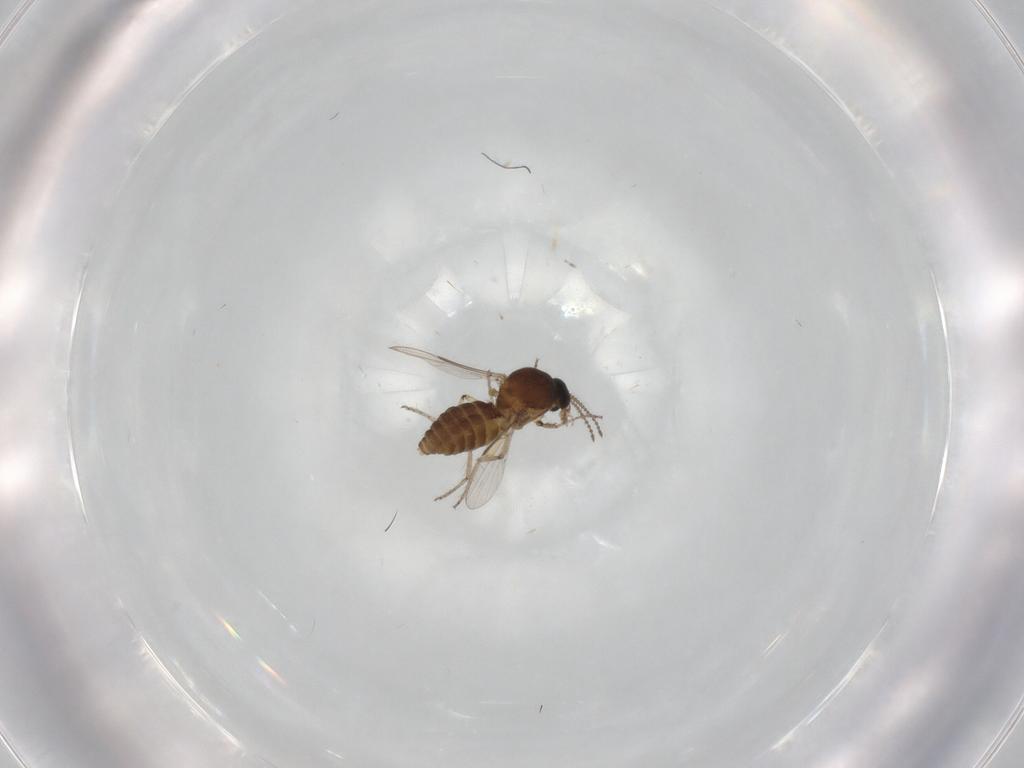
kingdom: Animalia
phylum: Arthropoda
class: Insecta
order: Diptera
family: Ceratopogonidae
